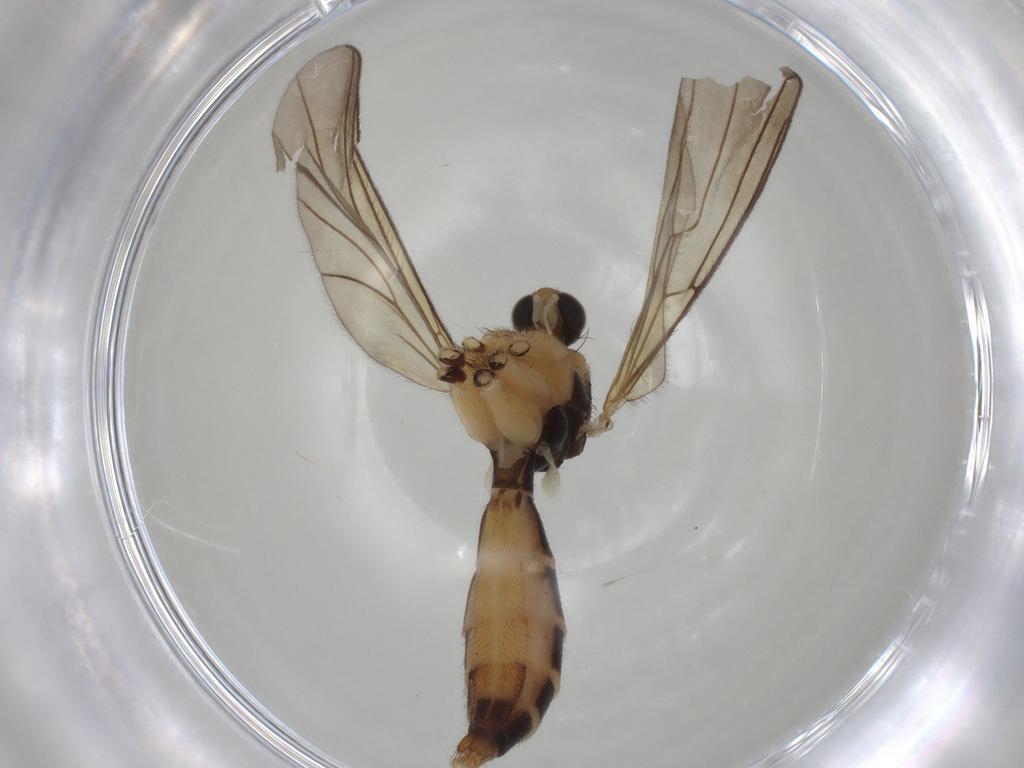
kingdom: Animalia
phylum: Arthropoda
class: Insecta
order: Diptera
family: Mycetophilidae
